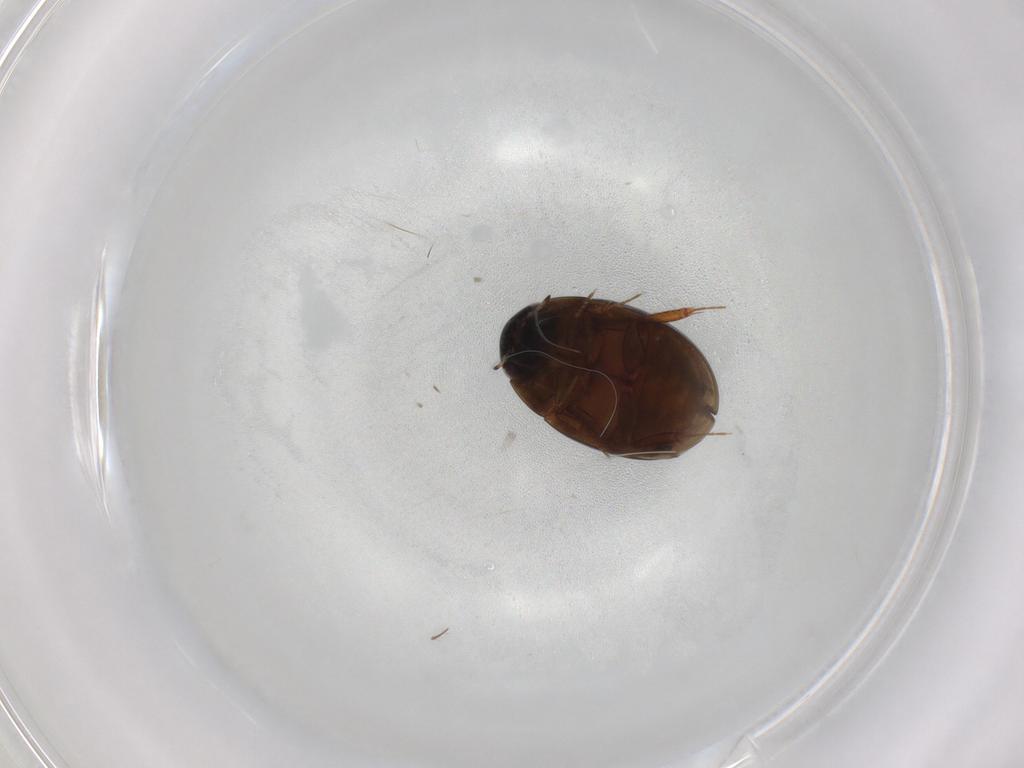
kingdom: Animalia
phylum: Arthropoda
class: Insecta
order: Coleoptera
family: Hydrophilidae
